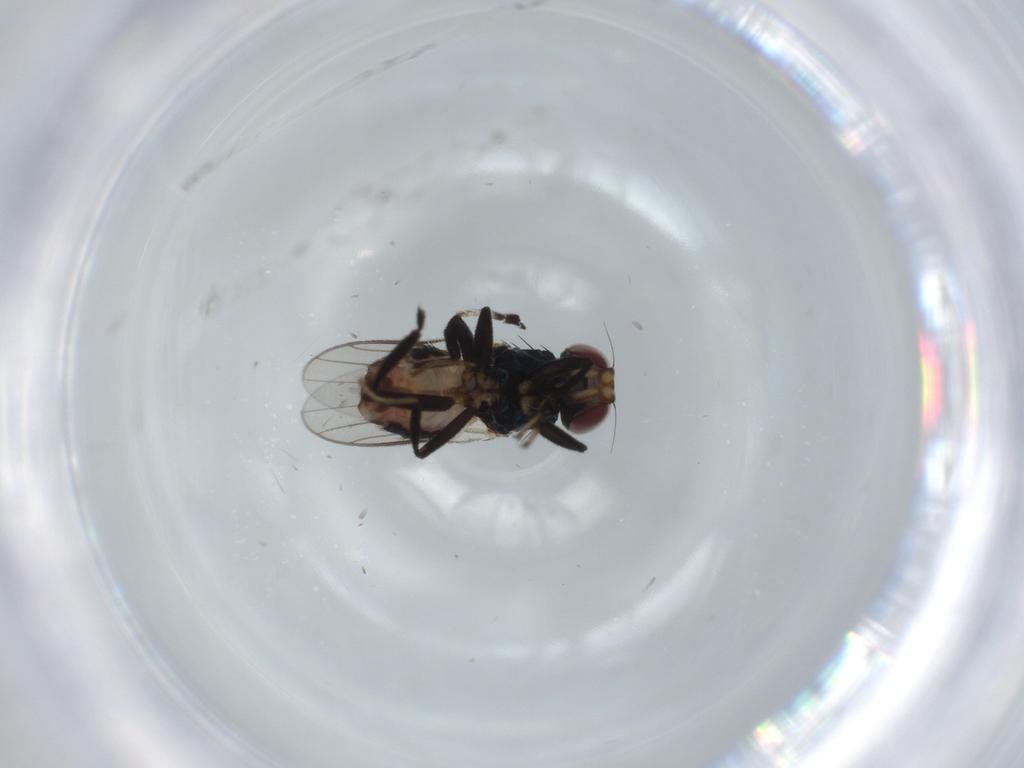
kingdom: Animalia
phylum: Arthropoda
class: Insecta
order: Diptera
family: Chloropidae
